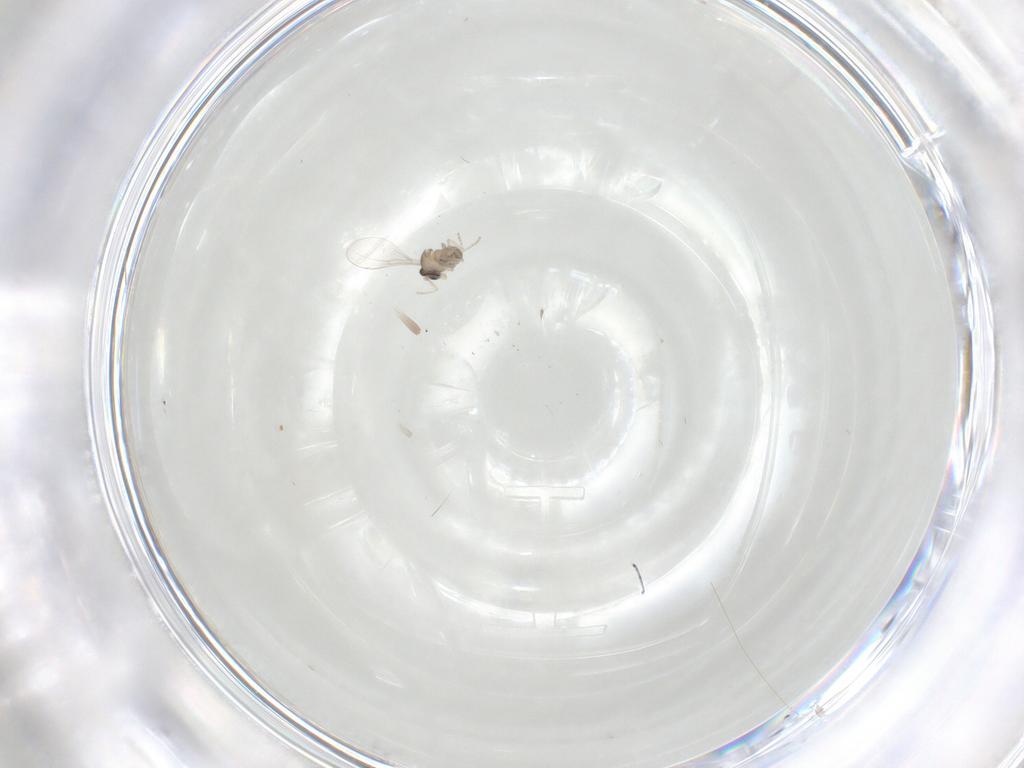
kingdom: Animalia
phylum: Arthropoda
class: Insecta
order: Diptera
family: Cecidomyiidae
